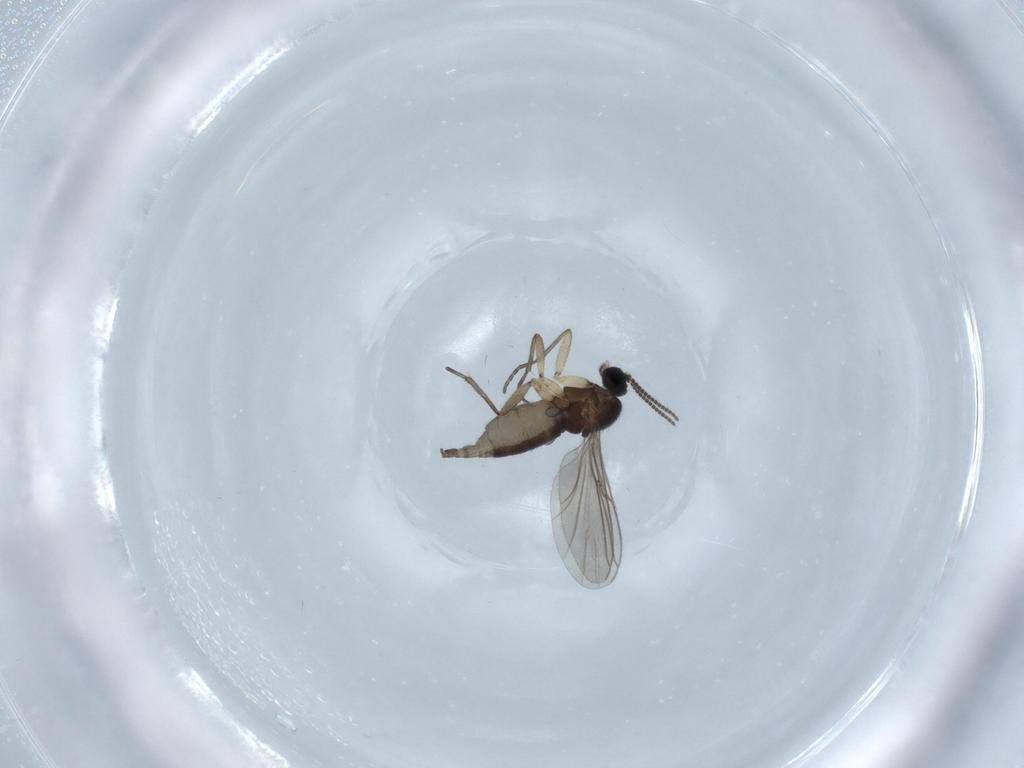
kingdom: Animalia
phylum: Arthropoda
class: Insecta
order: Diptera
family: Sciaridae
